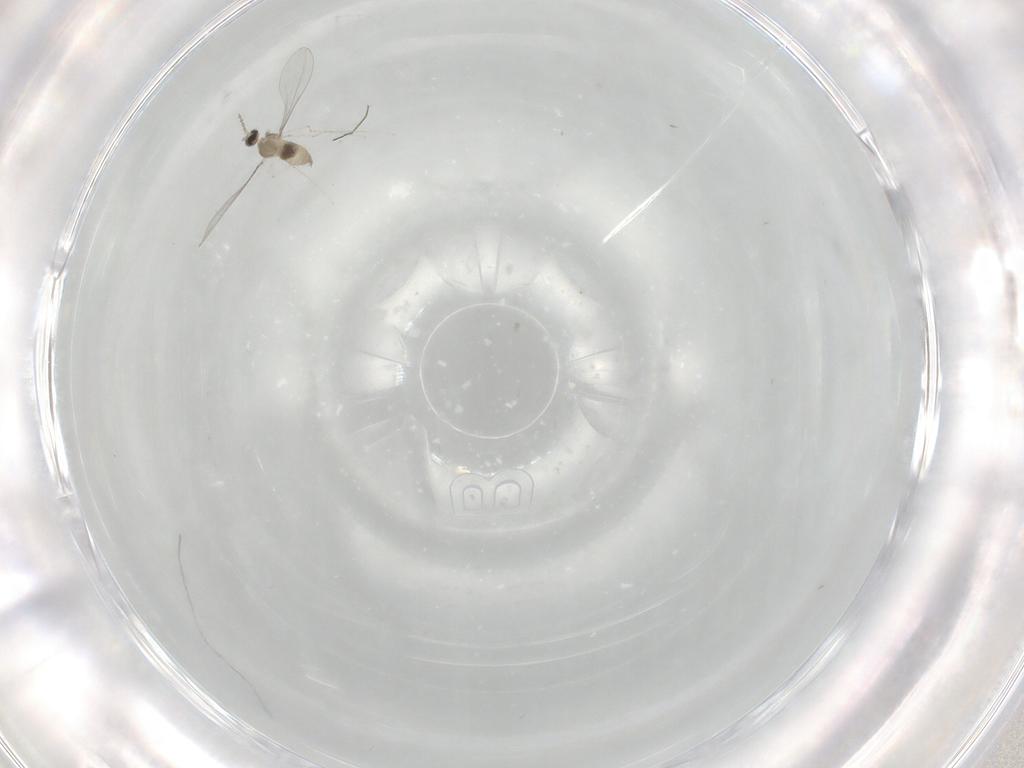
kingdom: Animalia
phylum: Arthropoda
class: Insecta
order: Diptera
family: Cecidomyiidae
